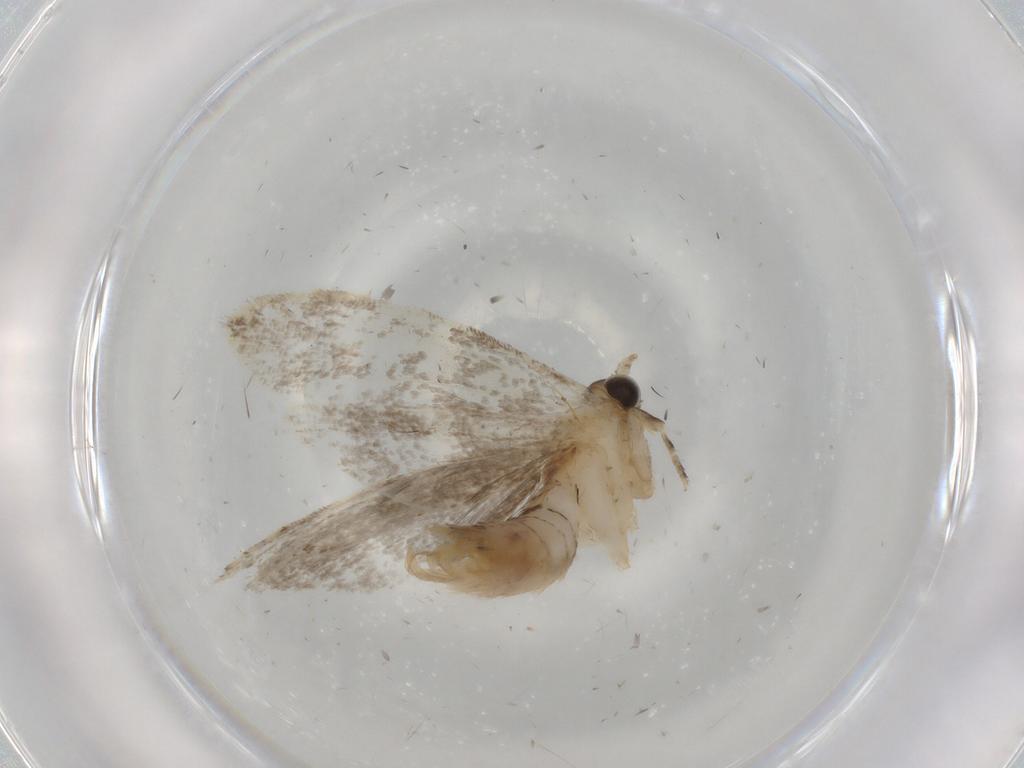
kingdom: Animalia
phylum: Arthropoda
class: Insecta
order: Lepidoptera
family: Tineidae
